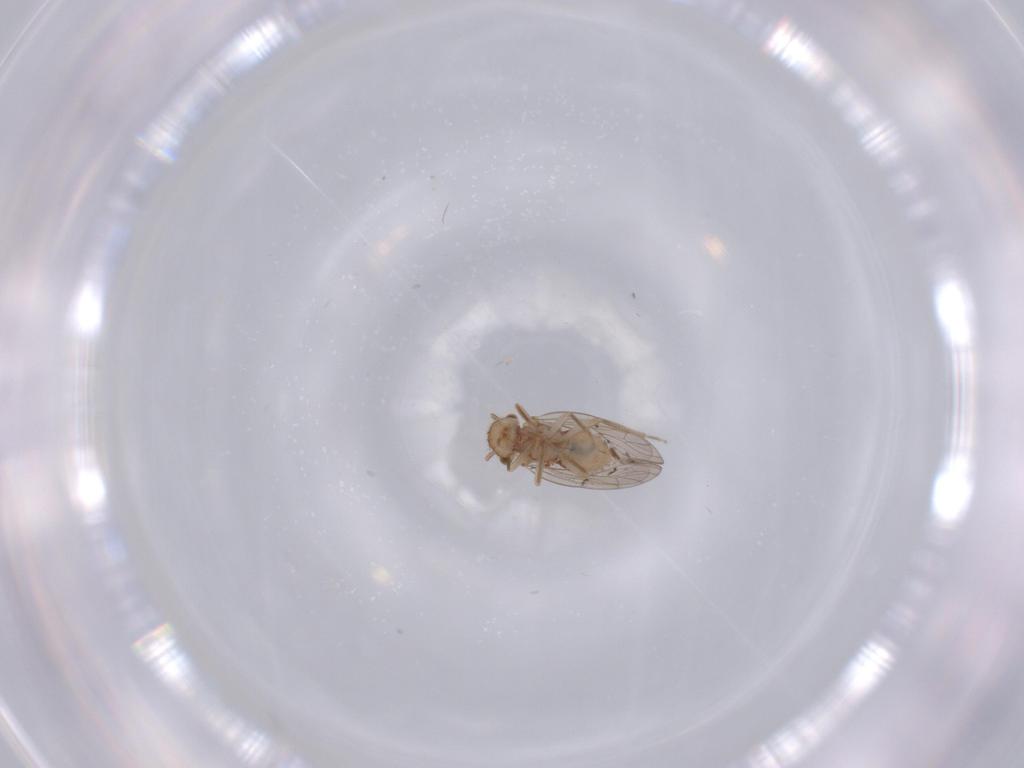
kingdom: Animalia
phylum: Arthropoda
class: Insecta
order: Psocodea
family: Ectopsocidae
